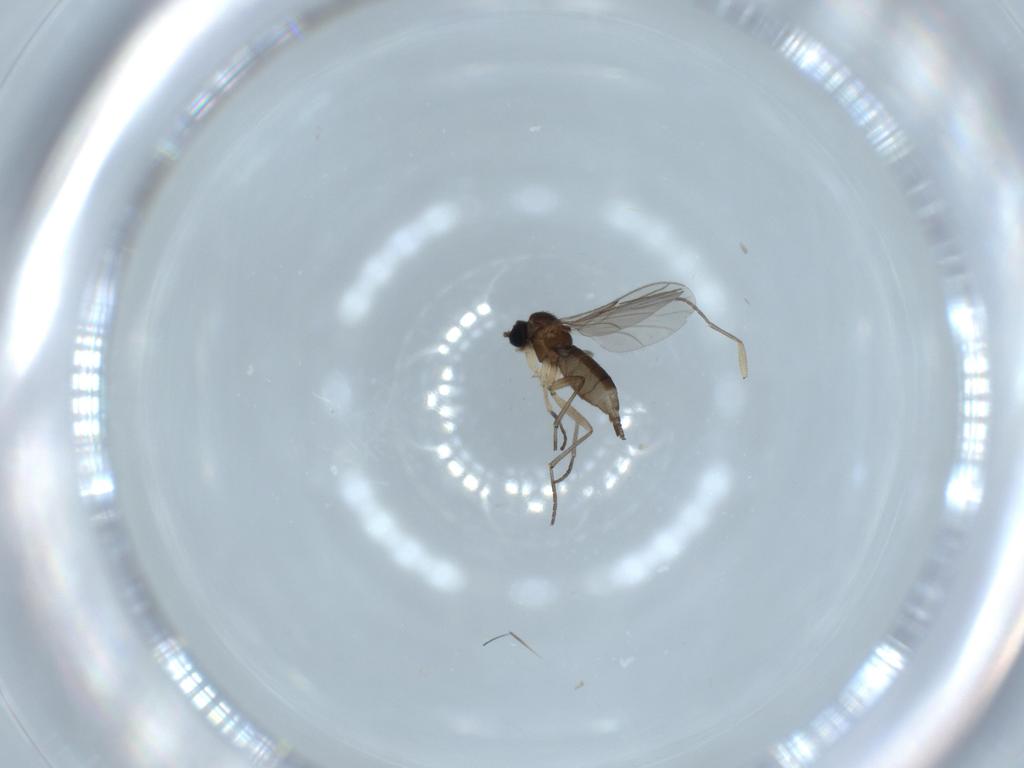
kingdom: Animalia
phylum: Arthropoda
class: Insecta
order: Diptera
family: Sciaridae
